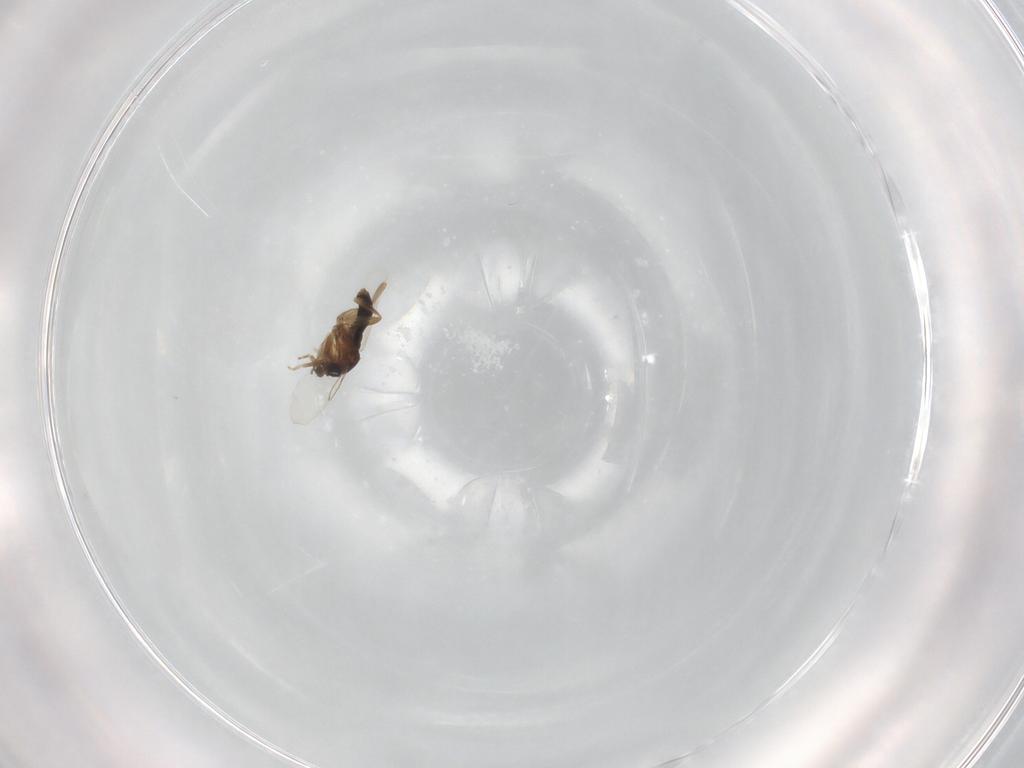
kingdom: Animalia
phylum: Arthropoda
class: Insecta
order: Diptera
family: Phoridae
